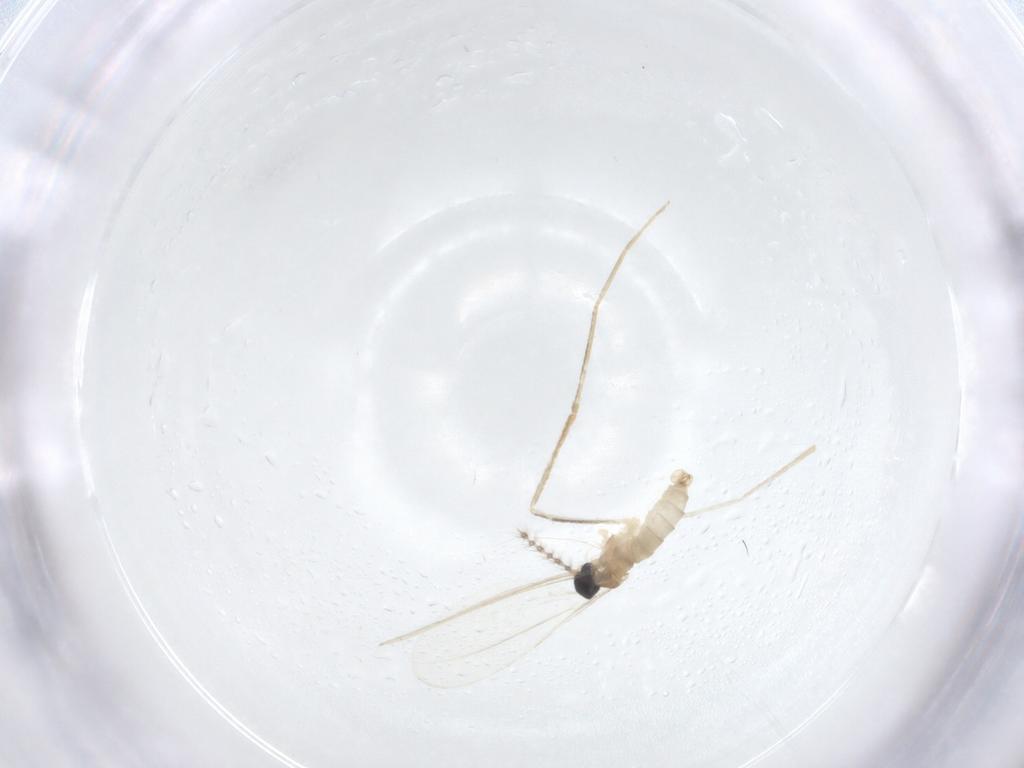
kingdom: Animalia
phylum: Arthropoda
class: Insecta
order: Diptera
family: Cecidomyiidae
